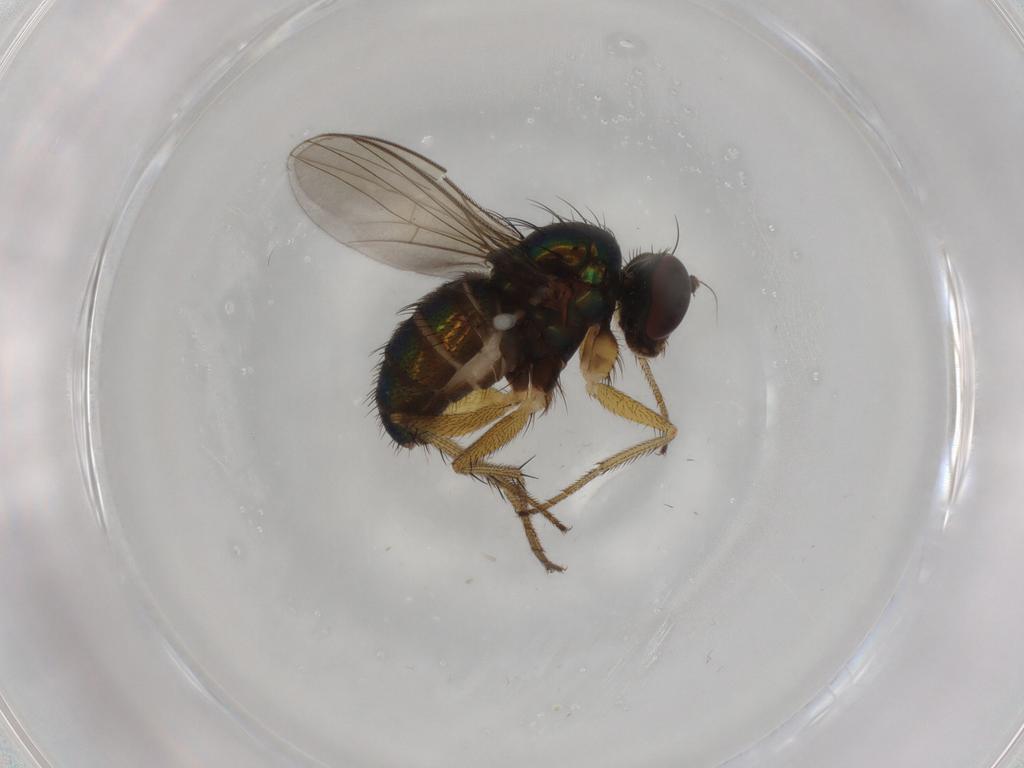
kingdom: Animalia
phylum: Arthropoda
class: Insecta
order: Diptera
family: Dolichopodidae
